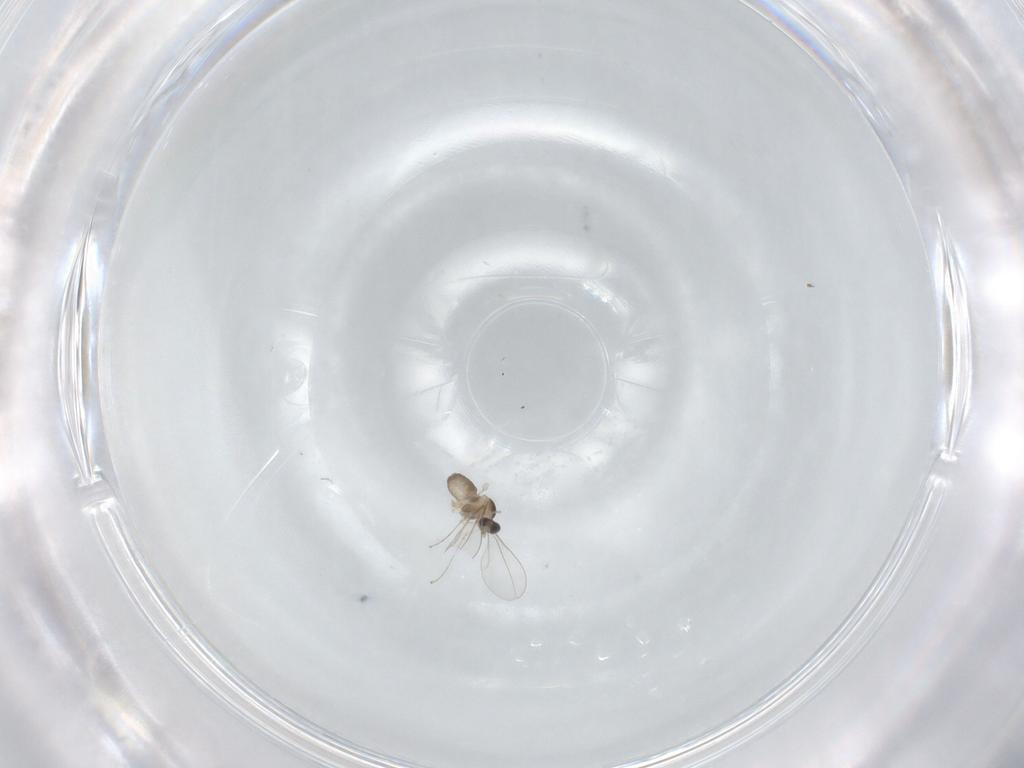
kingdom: Animalia
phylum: Arthropoda
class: Insecta
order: Diptera
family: Cecidomyiidae
